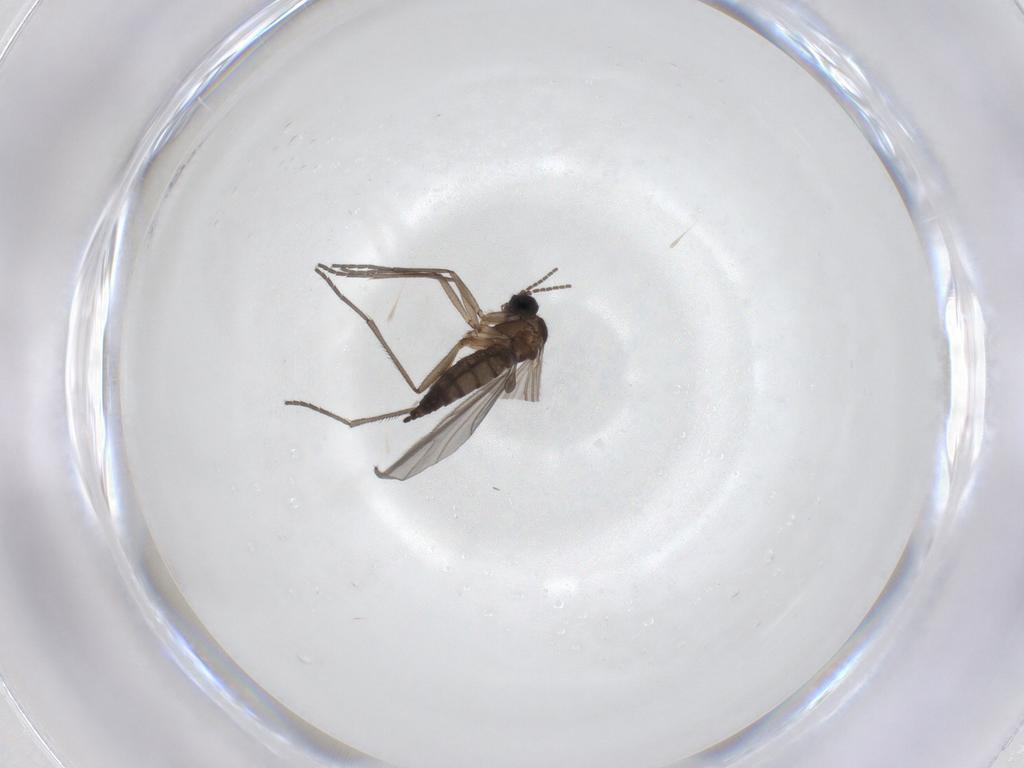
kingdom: Animalia
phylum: Arthropoda
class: Insecta
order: Diptera
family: Sciaridae
